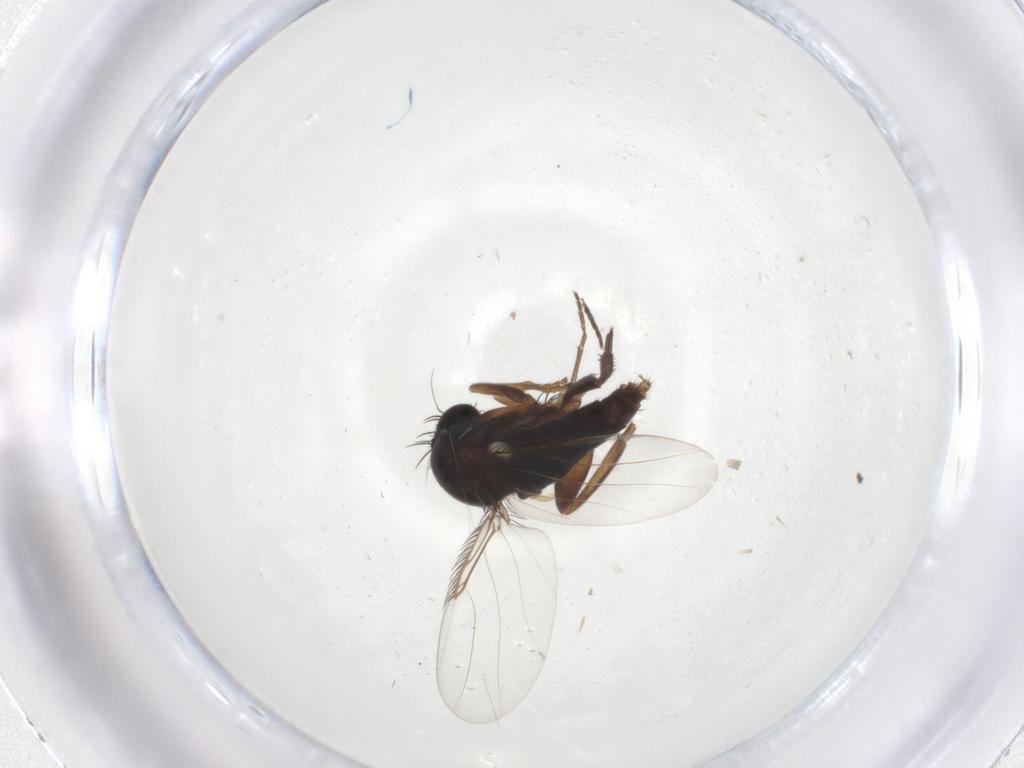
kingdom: Animalia
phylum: Arthropoda
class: Insecta
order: Diptera
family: Phoridae
